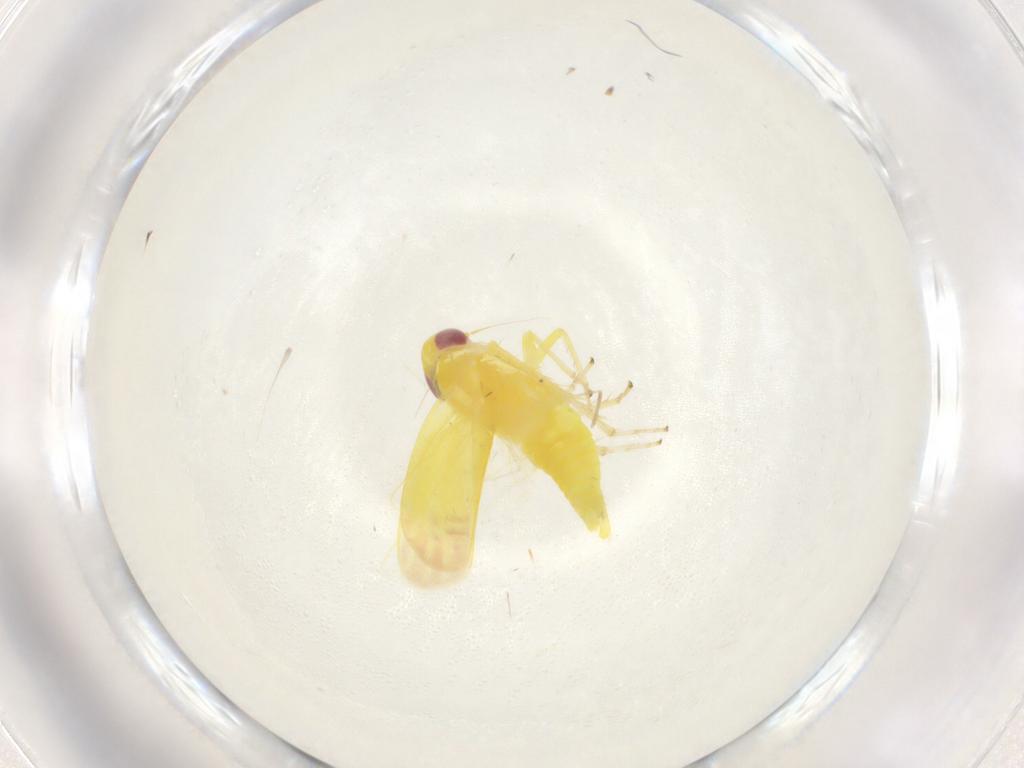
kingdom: Animalia
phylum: Arthropoda
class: Insecta
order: Hemiptera
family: Cicadellidae
